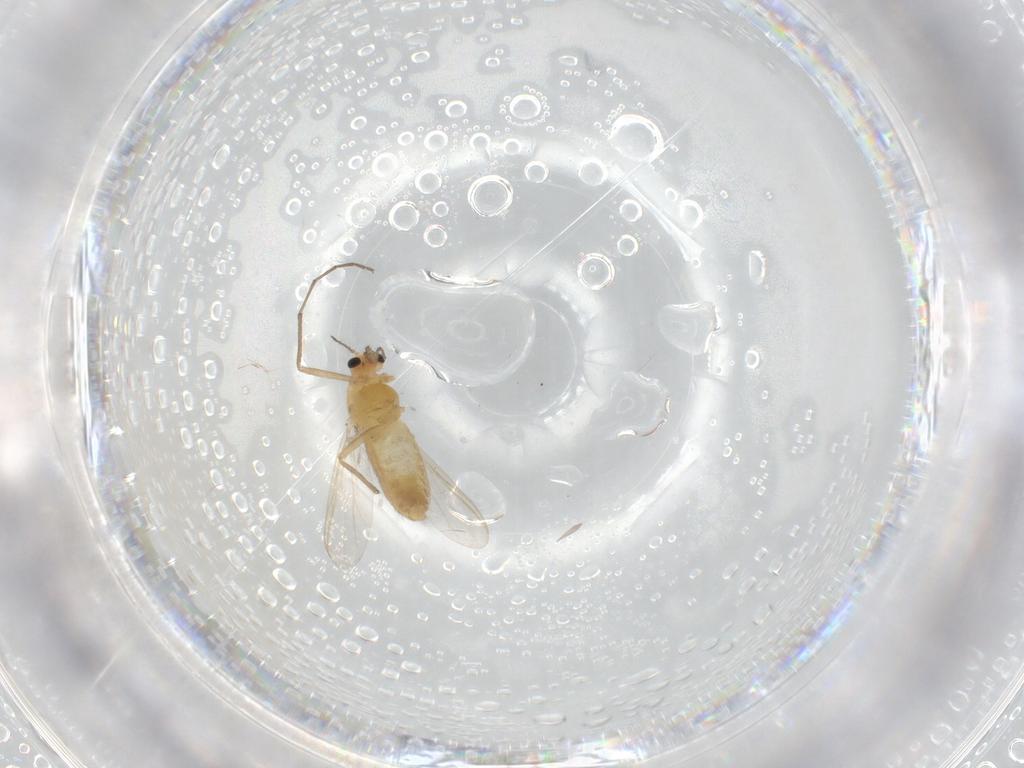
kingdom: Animalia
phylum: Arthropoda
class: Insecta
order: Diptera
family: Chironomidae
